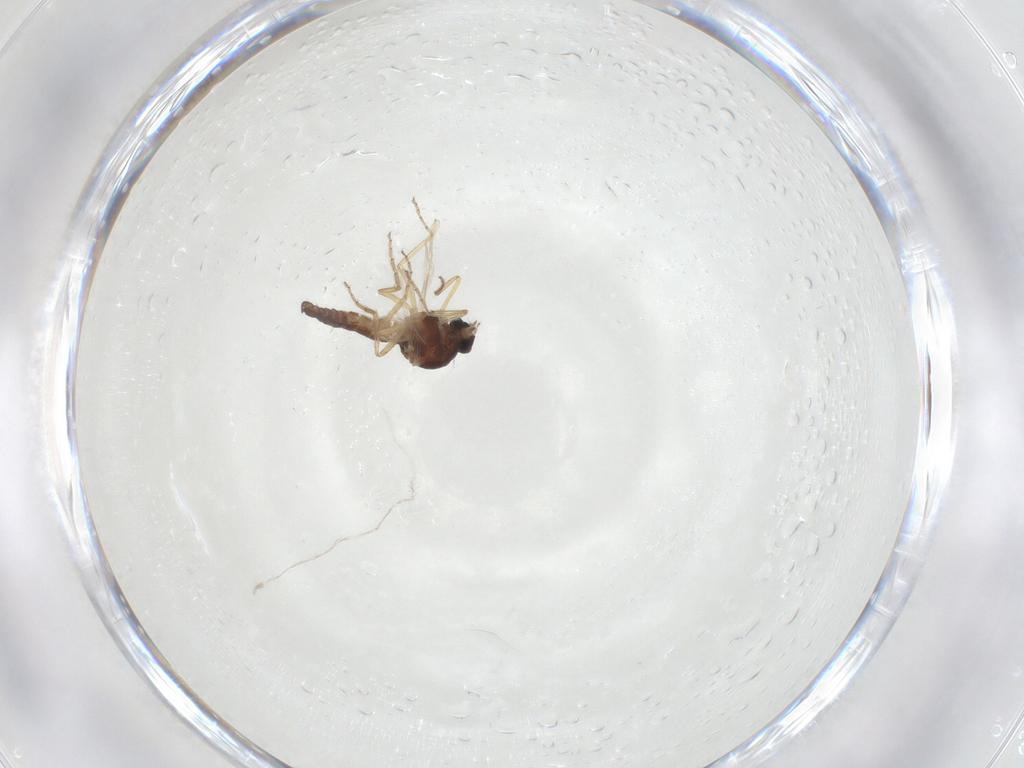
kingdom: Animalia
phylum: Arthropoda
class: Insecta
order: Diptera
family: Ceratopogonidae
